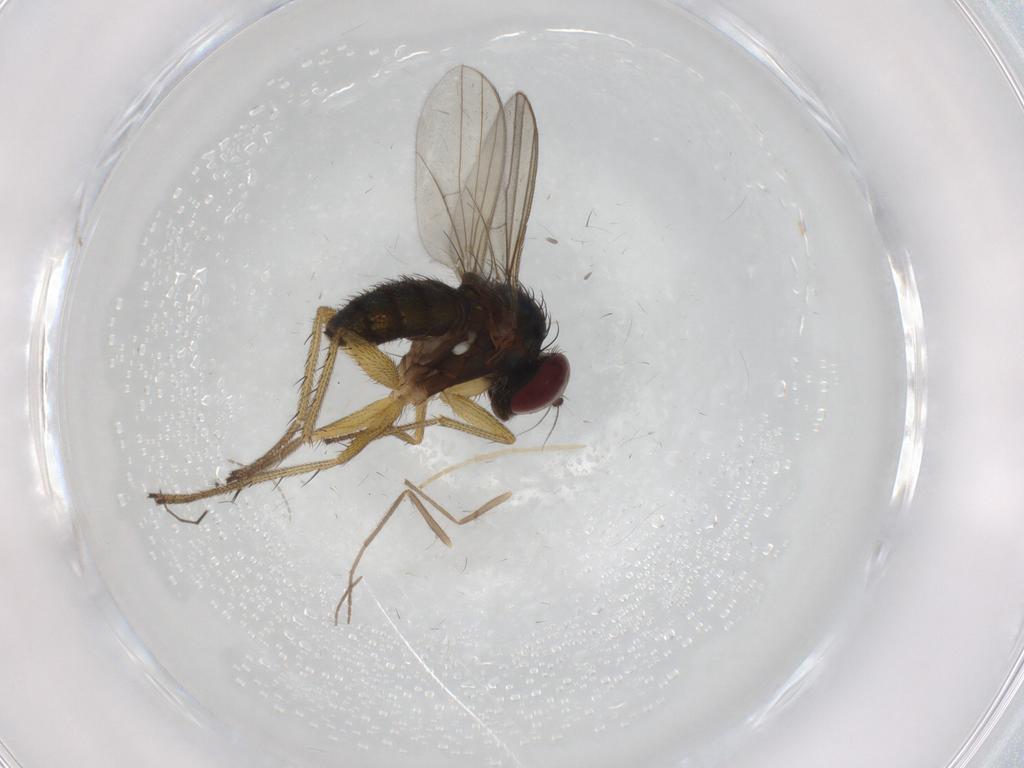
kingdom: Animalia
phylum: Arthropoda
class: Insecta
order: Diptera
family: Chironomidae
